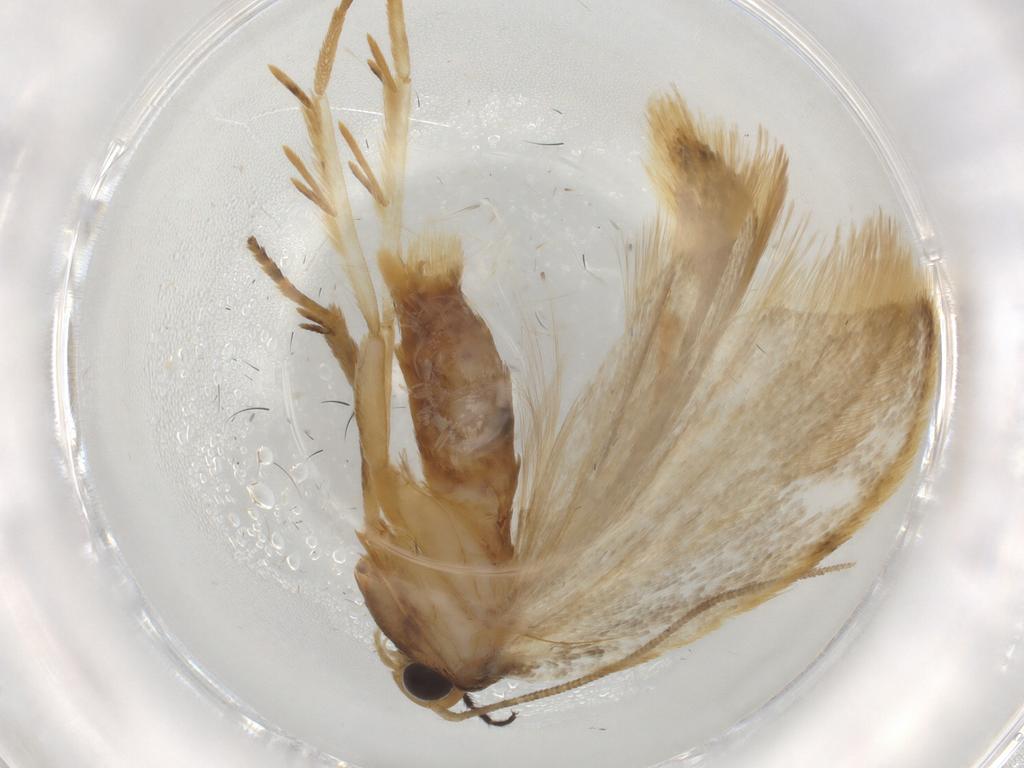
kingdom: Animalia
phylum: Arthropoda
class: Insecta
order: Lepidoptera
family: Depressariidae
